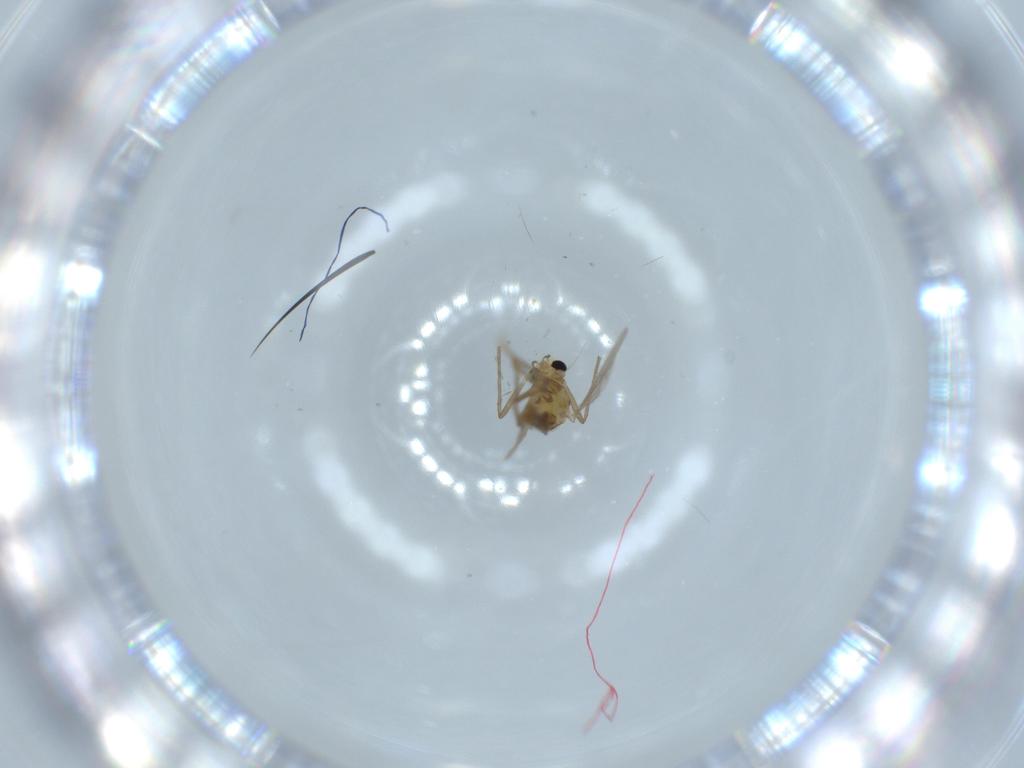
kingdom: Animalia
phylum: Arthropoda
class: Insecta
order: Diptera
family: Chironomidae
